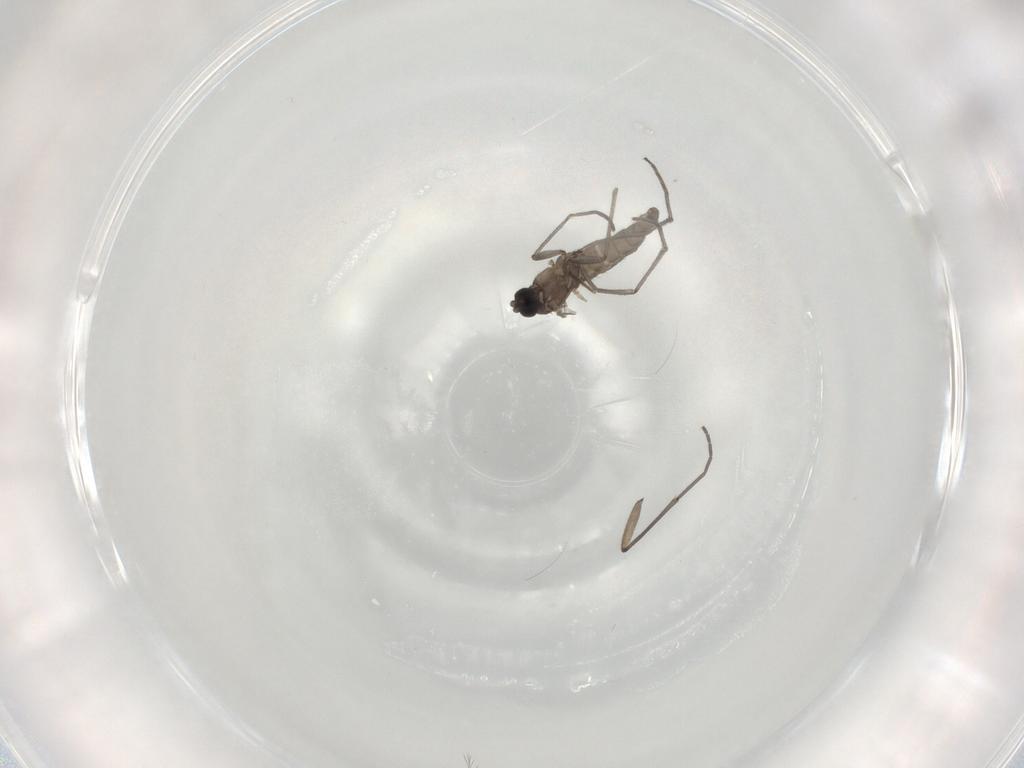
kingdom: Animalia
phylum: Arthropoda
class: Insecta
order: Diptera
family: Sciaridae
